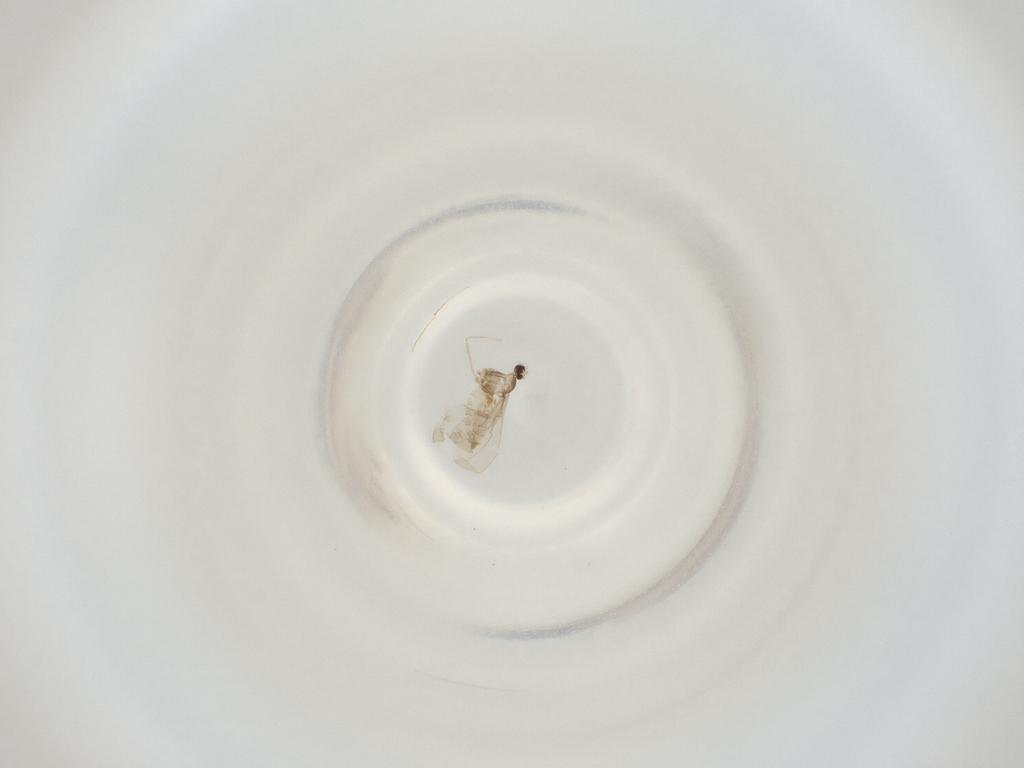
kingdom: Animalia
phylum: Arthropoda
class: Insecta
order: Diptera
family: Cecidomyiidae
